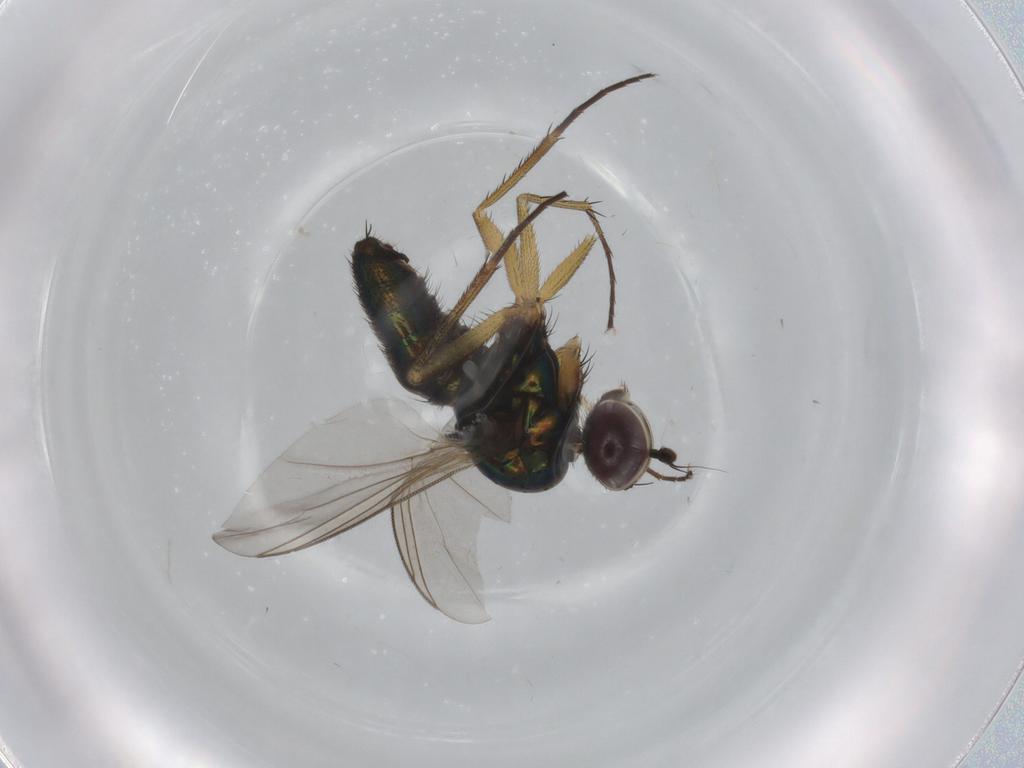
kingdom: Animalia
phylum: Arthropoda
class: Insecta
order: Diptera
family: Dolichopodidae
